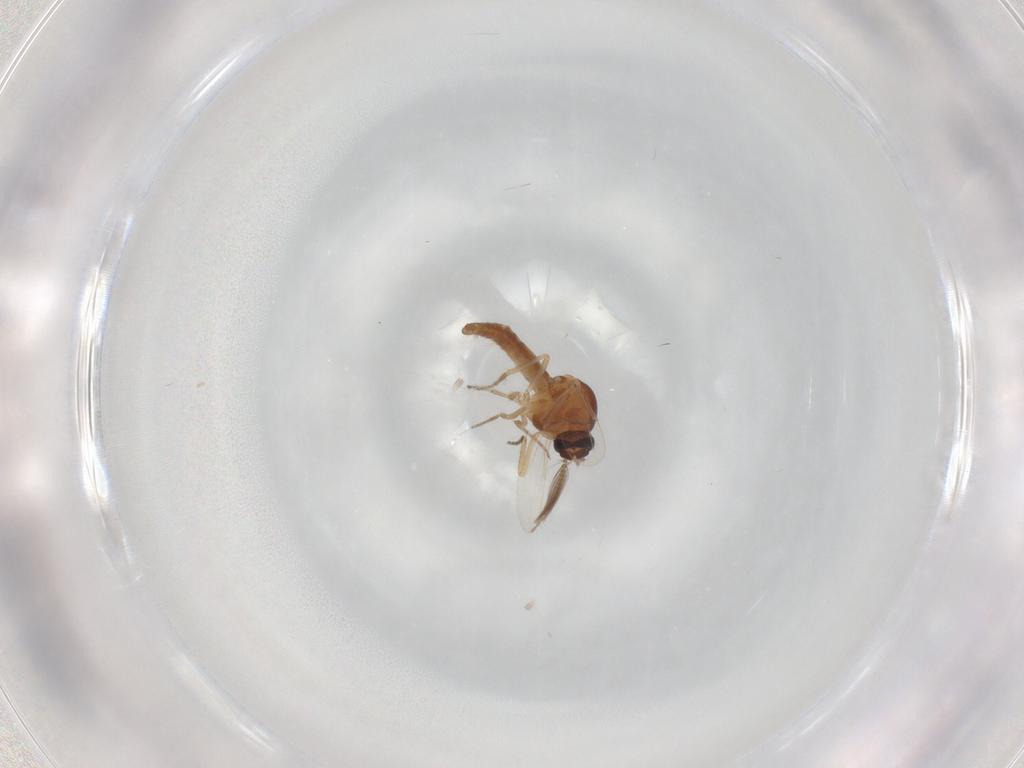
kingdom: Animalia
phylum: Arthropoda
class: Insecta
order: Diptera
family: Ceratopogonidae
